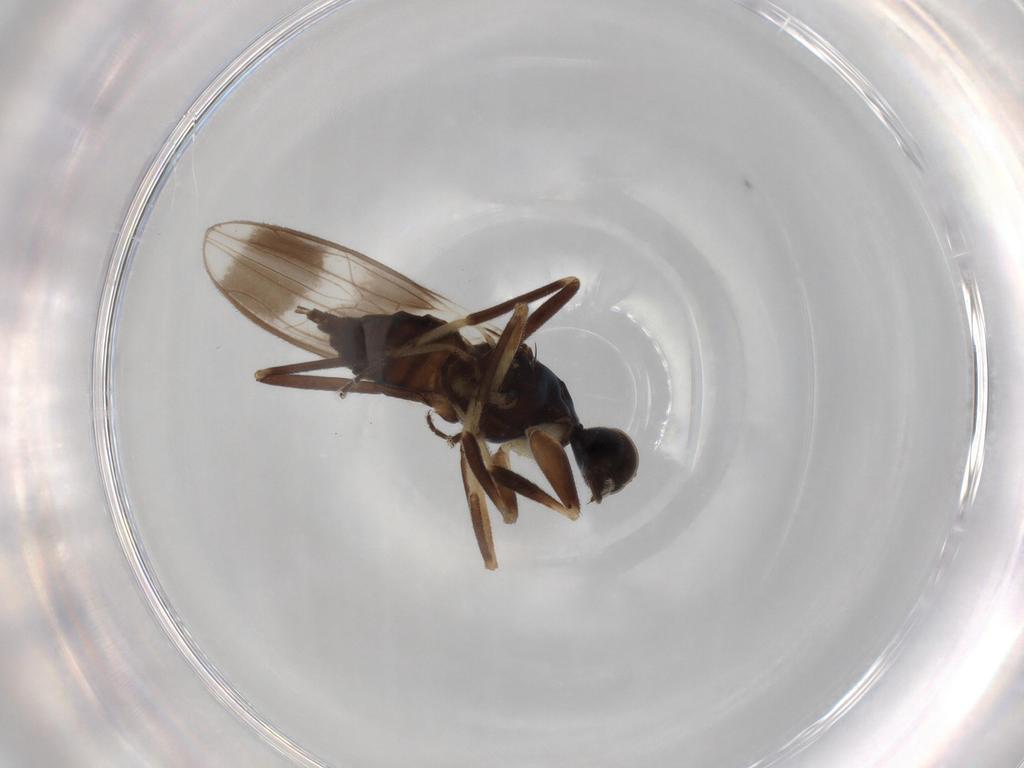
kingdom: Animalia
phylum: Arthropoda
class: Insecta
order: Diptera
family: Hybotidae
